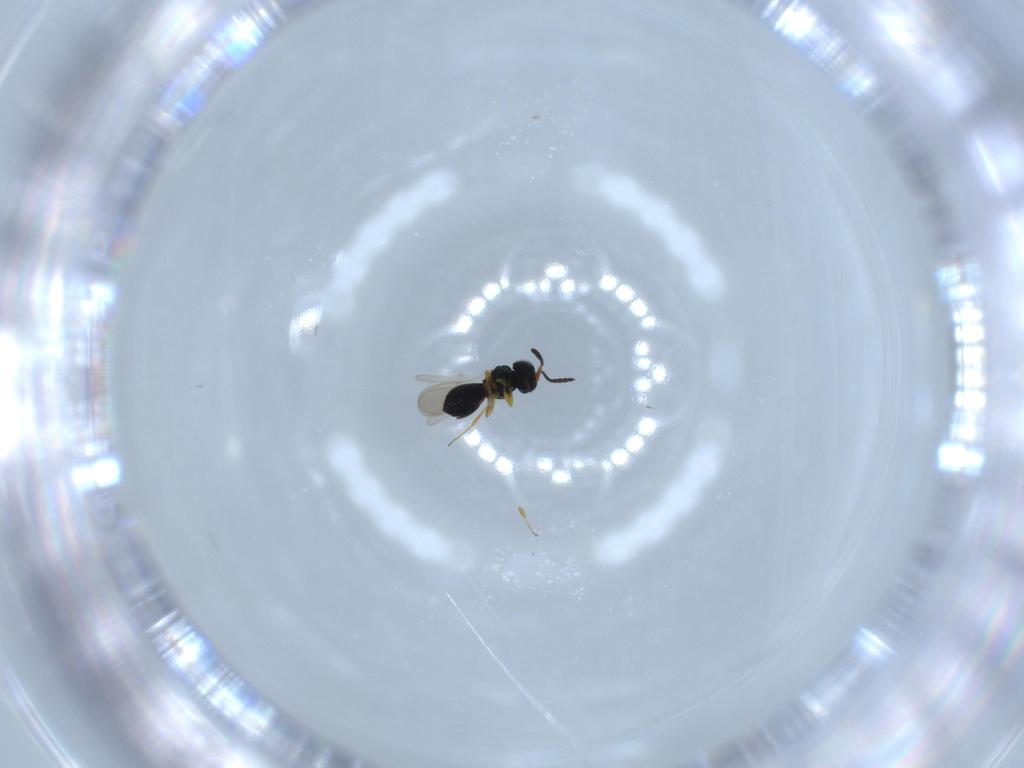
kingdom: Animalia
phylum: Arthropoda
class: Insecta
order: Hymenoptera
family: Scelionidae
